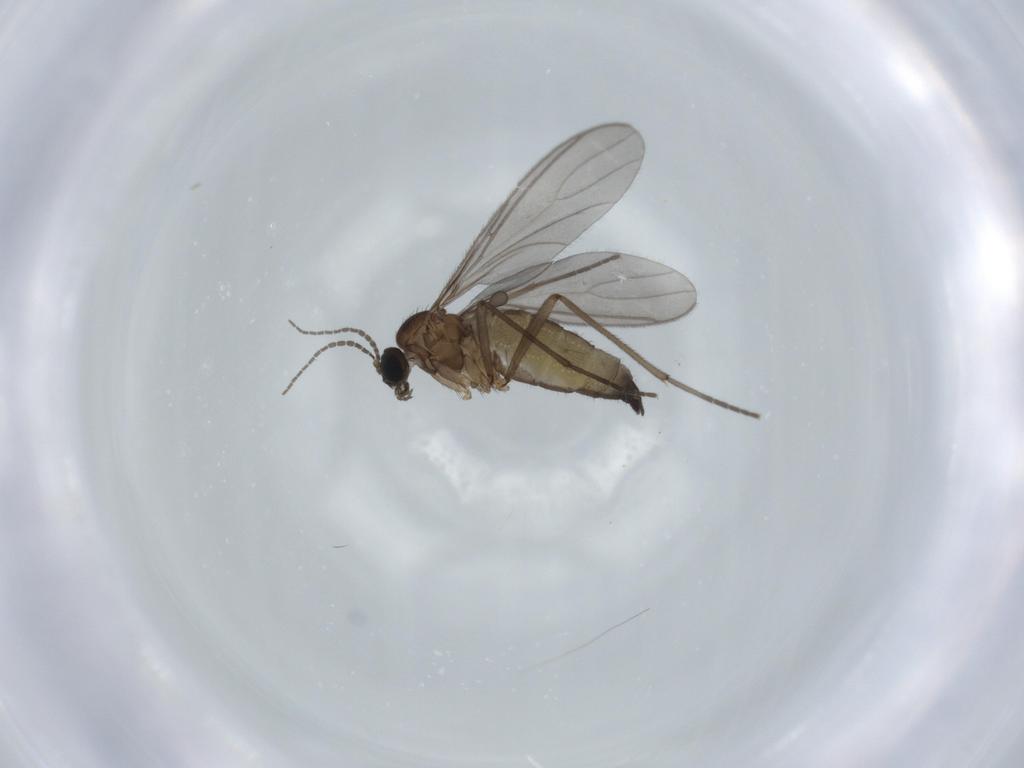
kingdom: Animalia
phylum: Arthropoda
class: Insecta
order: Diptera
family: Sciaridae
